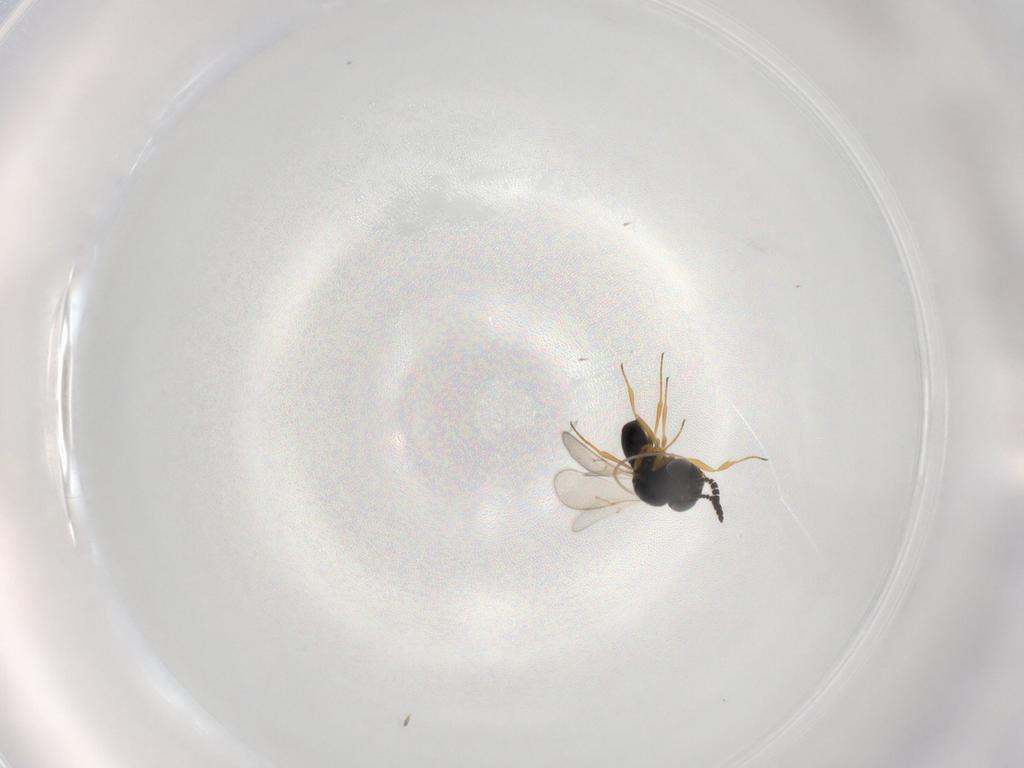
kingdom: Animalia
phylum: Arthropoda
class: Insecta
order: Hymenoptera
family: Scelionidae
